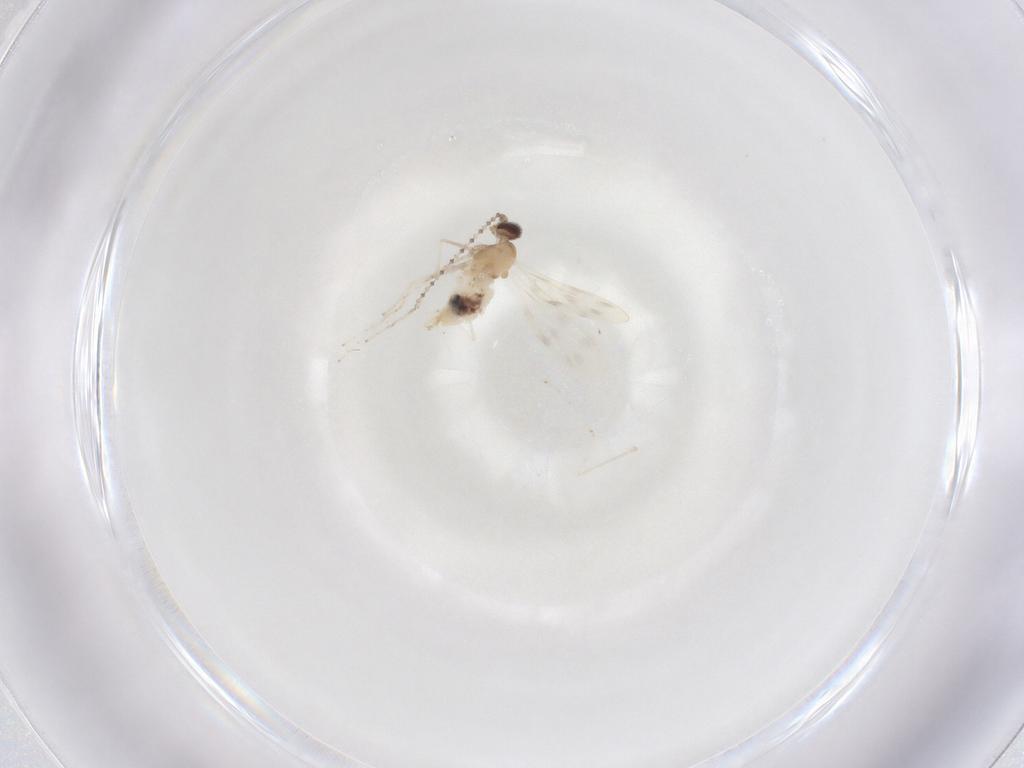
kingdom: Animalia
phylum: Arthropoda
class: Insecta
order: Diptera
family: Cecidomyiidae
